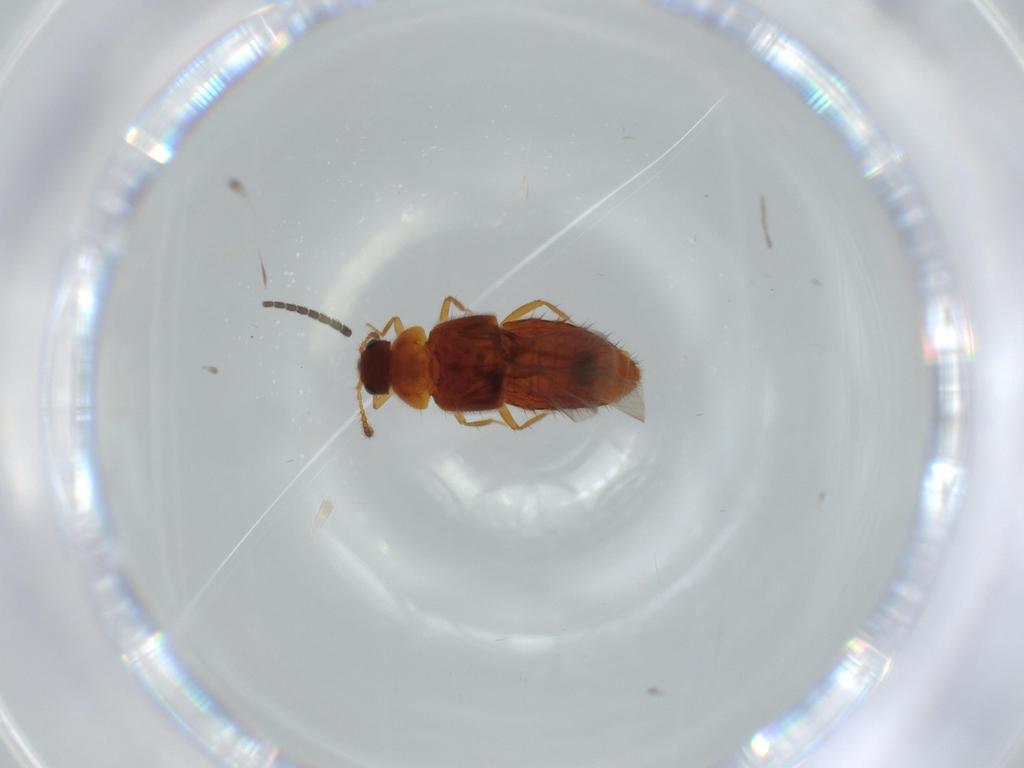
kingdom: Animalia
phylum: Arthropoda
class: Insecta
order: Coleoptera
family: Staphylinidae
